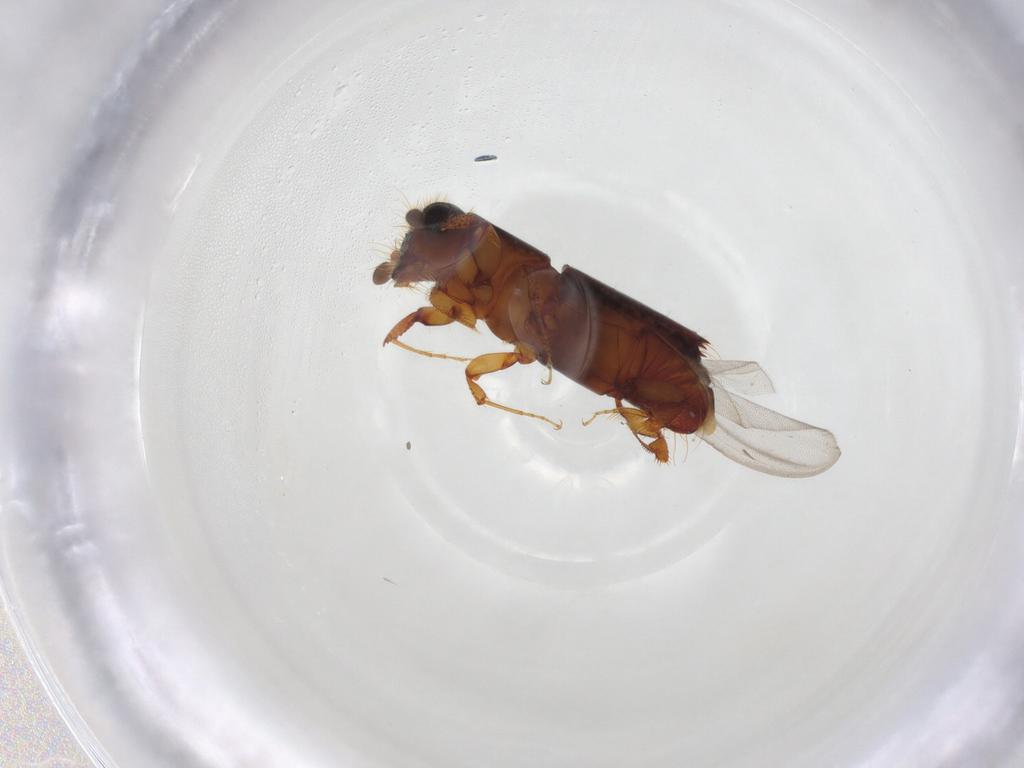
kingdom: Animalia
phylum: Arthropoda
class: Insecta
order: Coleoptera
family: Curculionidae
